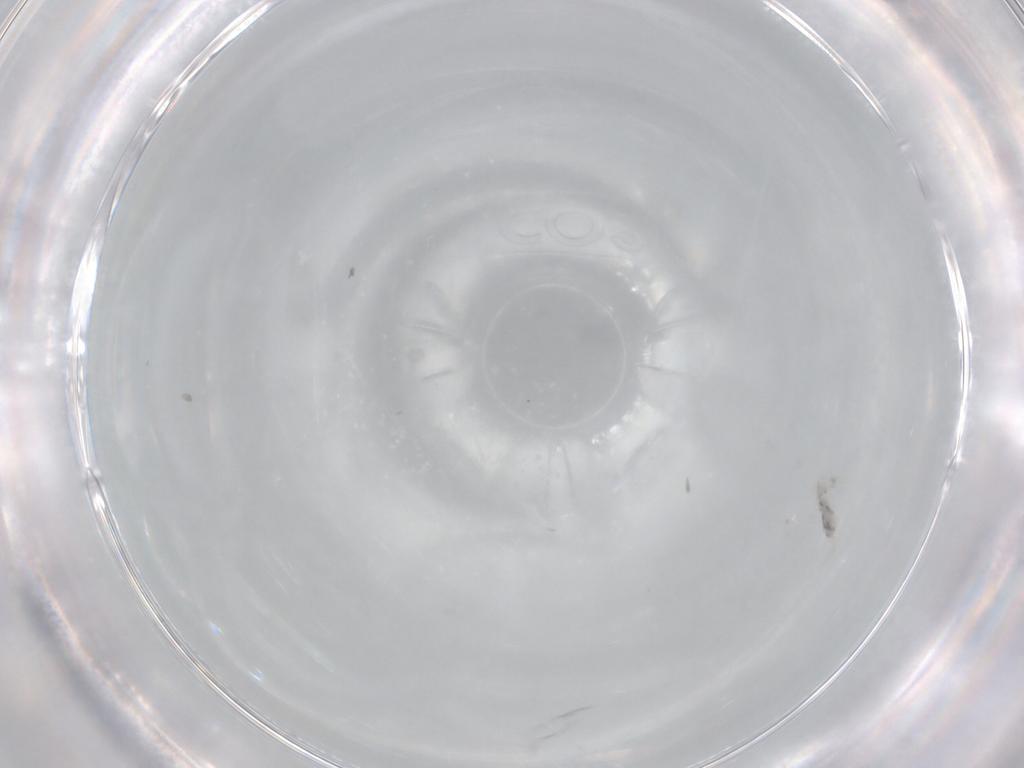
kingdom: Animalia
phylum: Arthropoda
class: Collembola
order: Entomobryomorpha
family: Entomobryidae
